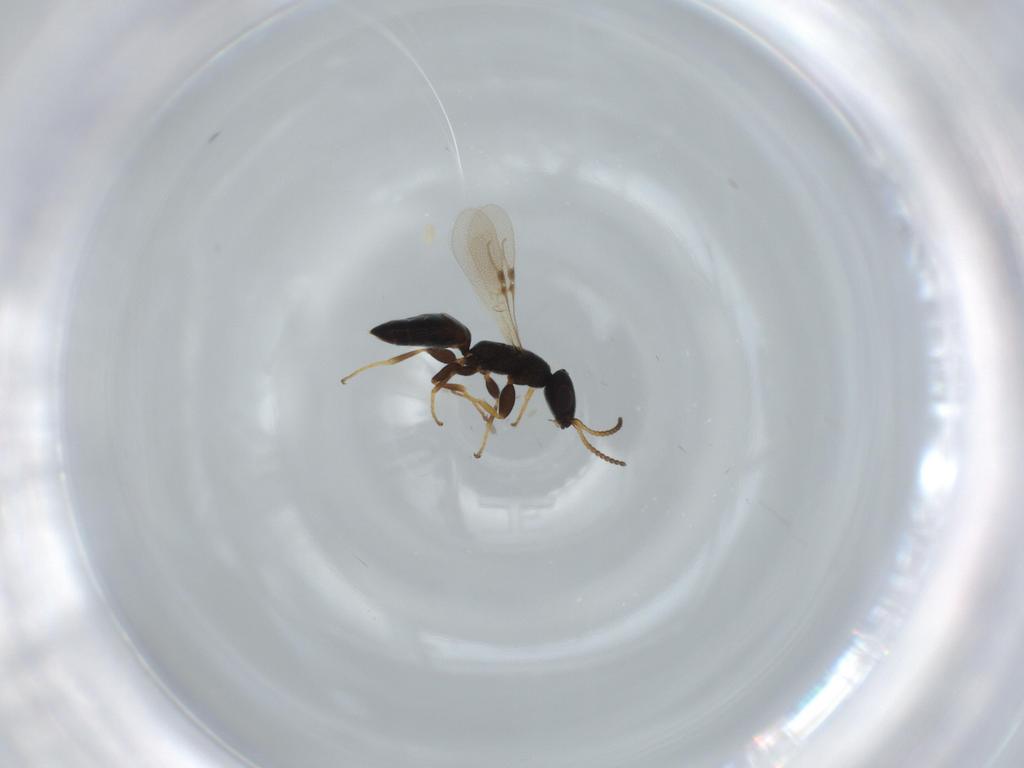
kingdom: Animalia
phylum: Arthropoda
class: Insecta
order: Hymenoptera
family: Bethylidae
